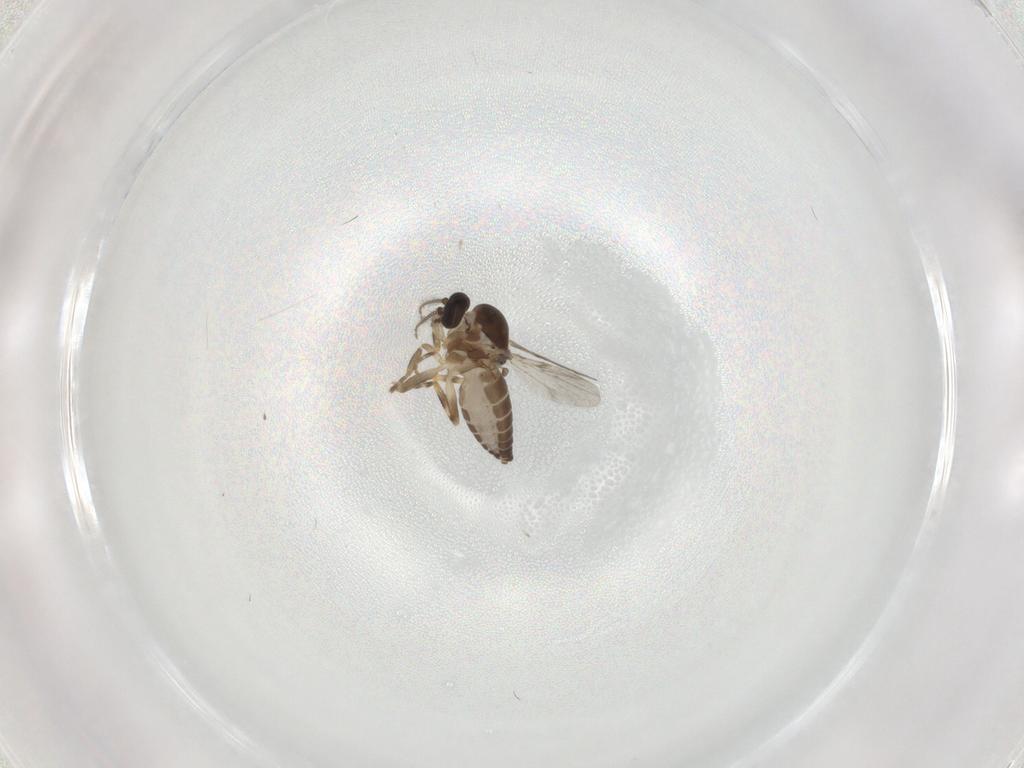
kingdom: Animalia
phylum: Arthropoda
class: Insecta
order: Diptera
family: Ceratopogonidae
